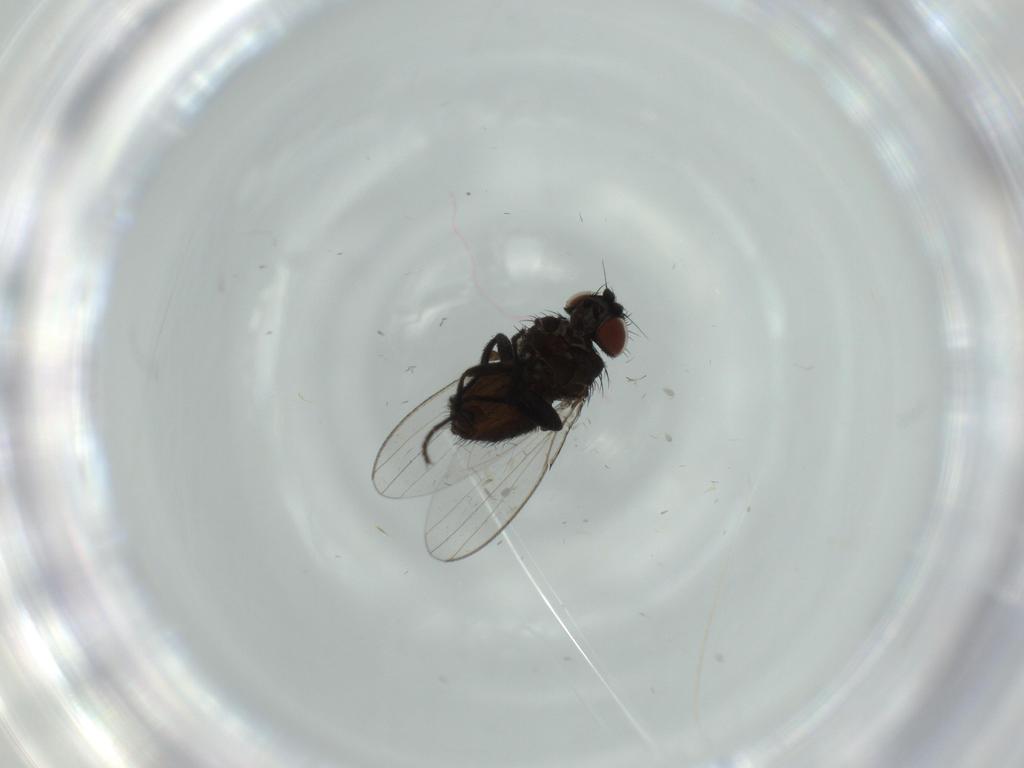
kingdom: Animalia
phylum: Arthropoda
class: Insecta
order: Diptera
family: Milichiidae
